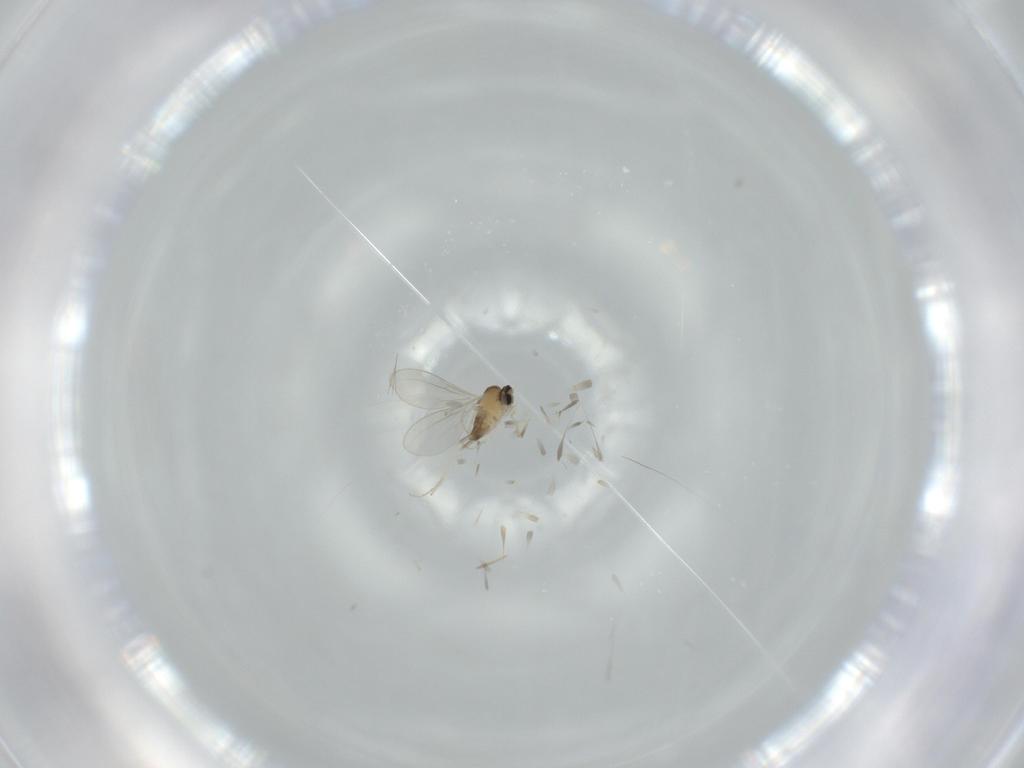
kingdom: Animalia
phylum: Arthropoda
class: Insecta
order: Diptera
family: Cecidomyiidae
